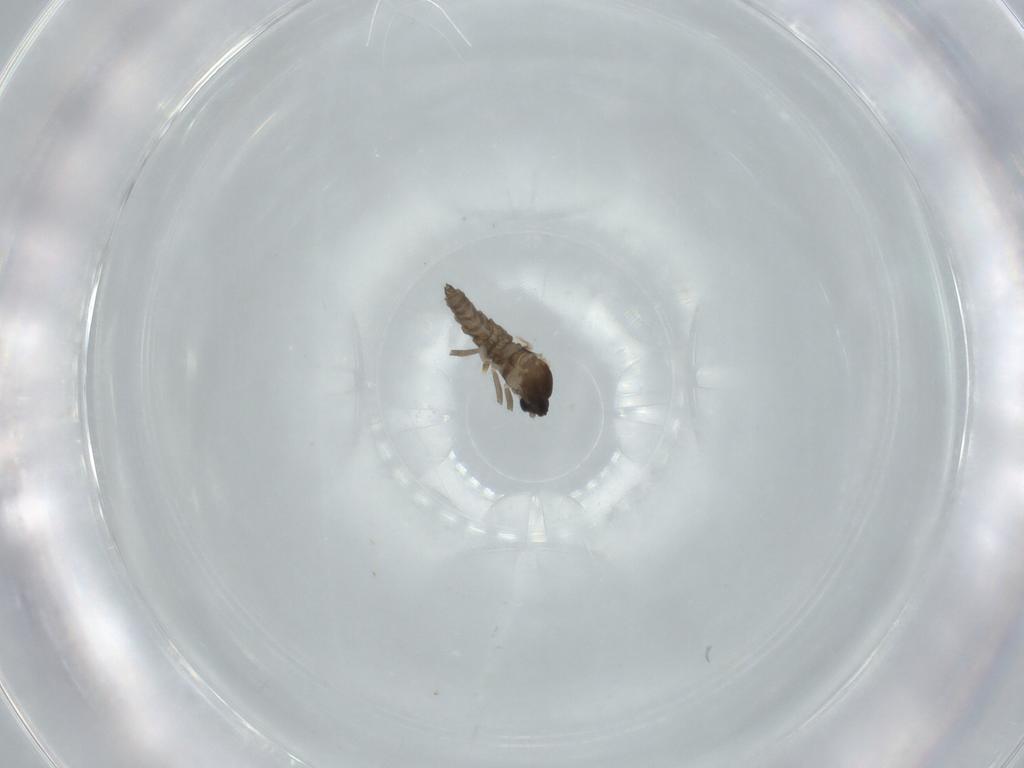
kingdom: Animalia
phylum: Arthropoda
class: Insecta
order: Diptera
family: Cecidomyiidae
